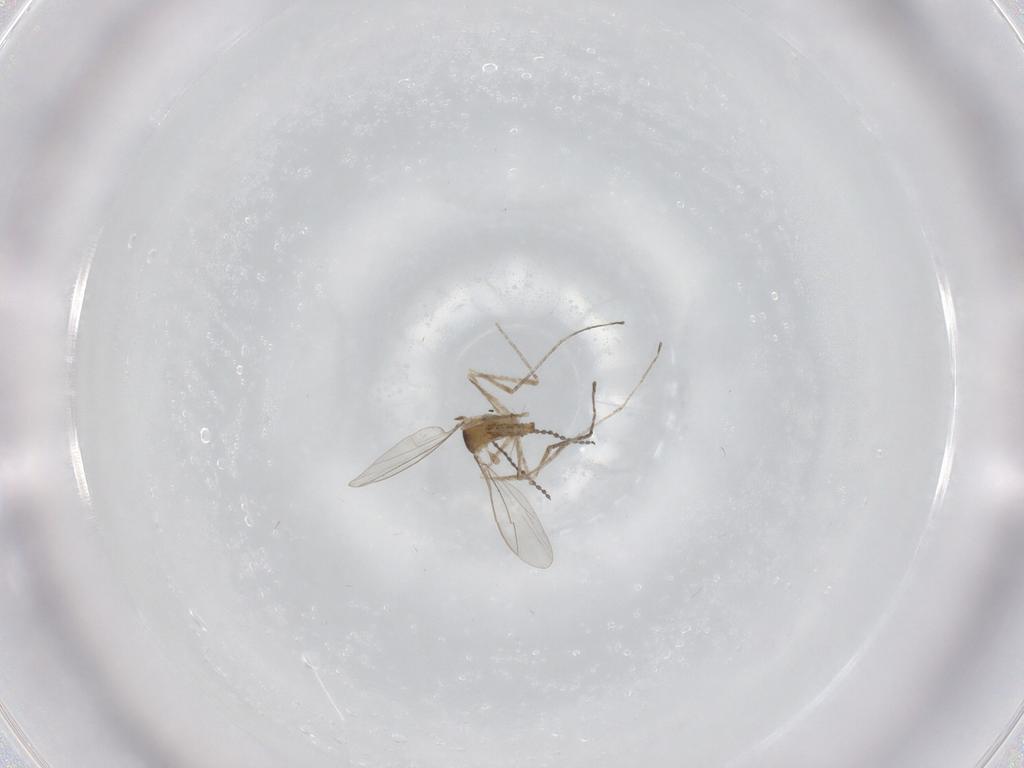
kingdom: Animalia
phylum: Arthropoda
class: Insecta
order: Diptera
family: Cecidomyiidae
